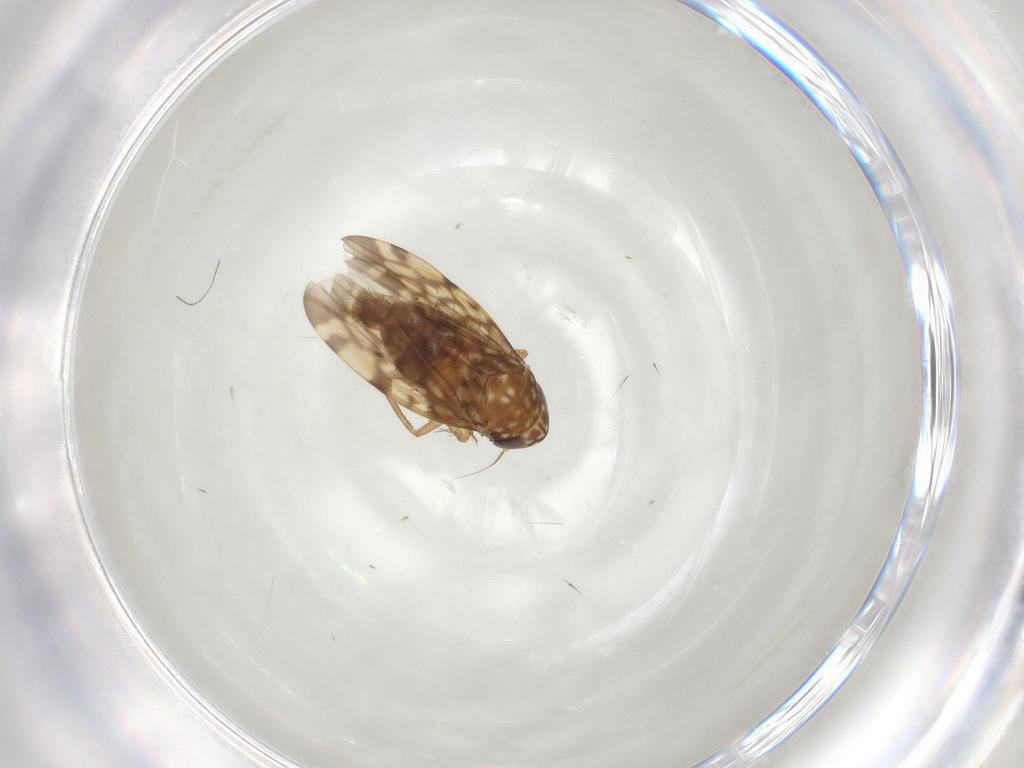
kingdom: Animalia
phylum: Arthropoda
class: Insecta
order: Hemiptera
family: Cicadellidae
